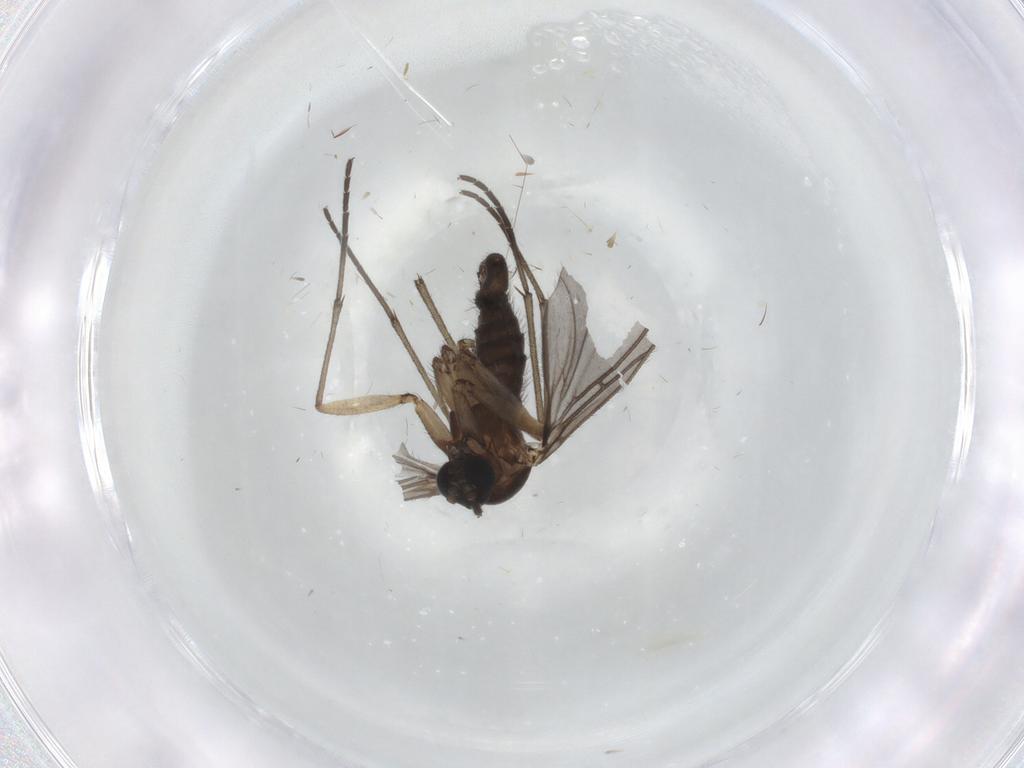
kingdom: Animalia
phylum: Arthropoda
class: Insecta
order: Diptera
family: Sciaridae
